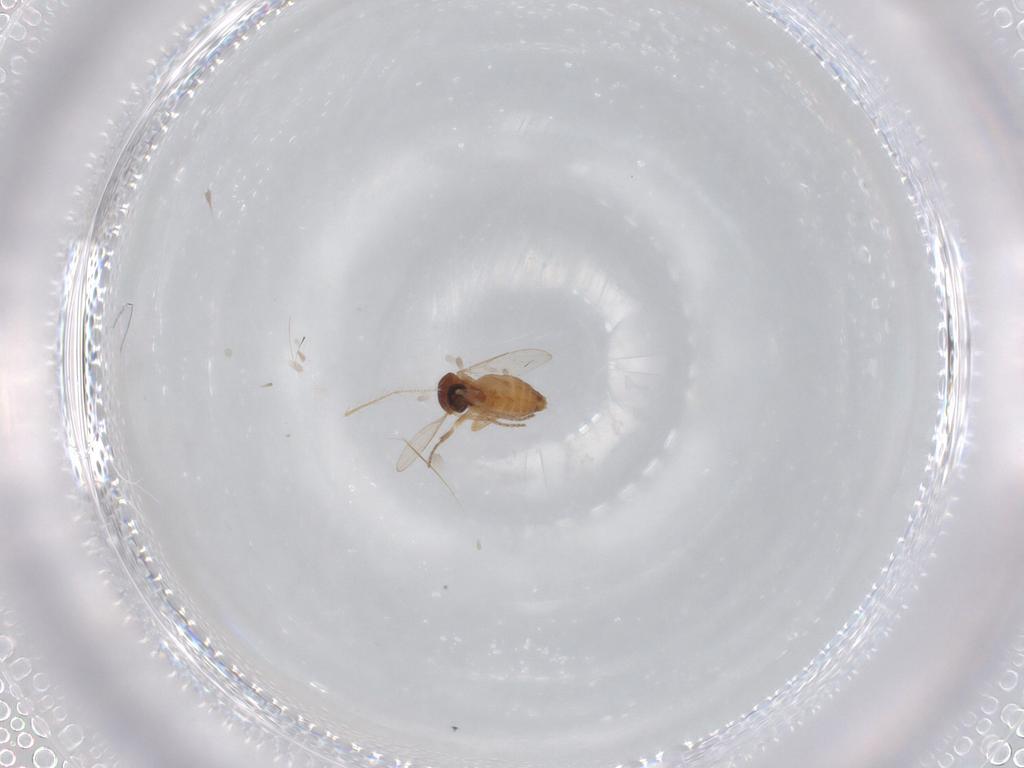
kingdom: Animalia
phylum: Arthropoda
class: Insecta
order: Diptera
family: Ceratopogonidae
